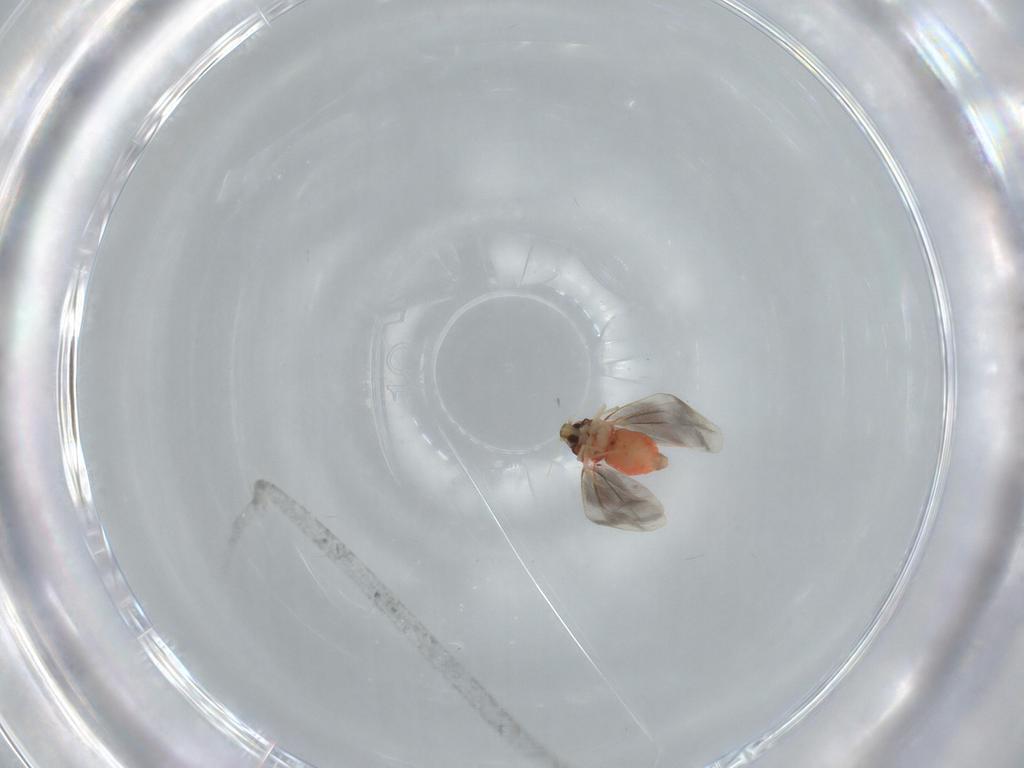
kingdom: Animalia
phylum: Arthropoda
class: Insecta
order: Hemiptera
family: Aleyrodidae
